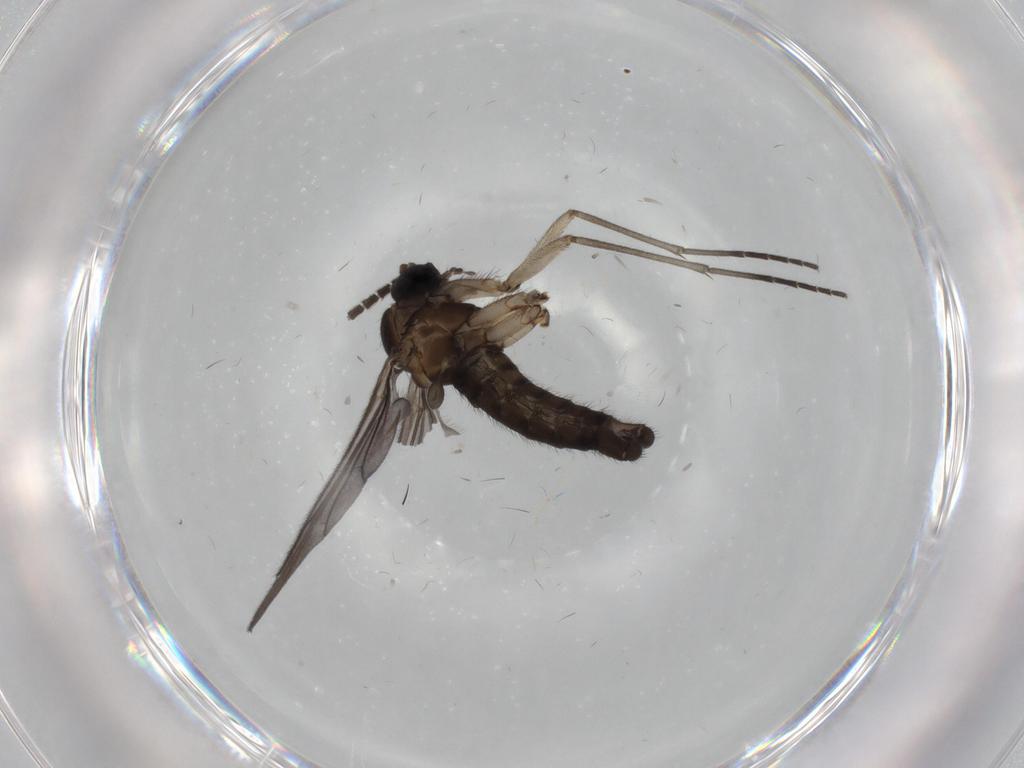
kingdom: Animalia
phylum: Arthropoda
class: Insecta
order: Diptera
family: Sciaridae
